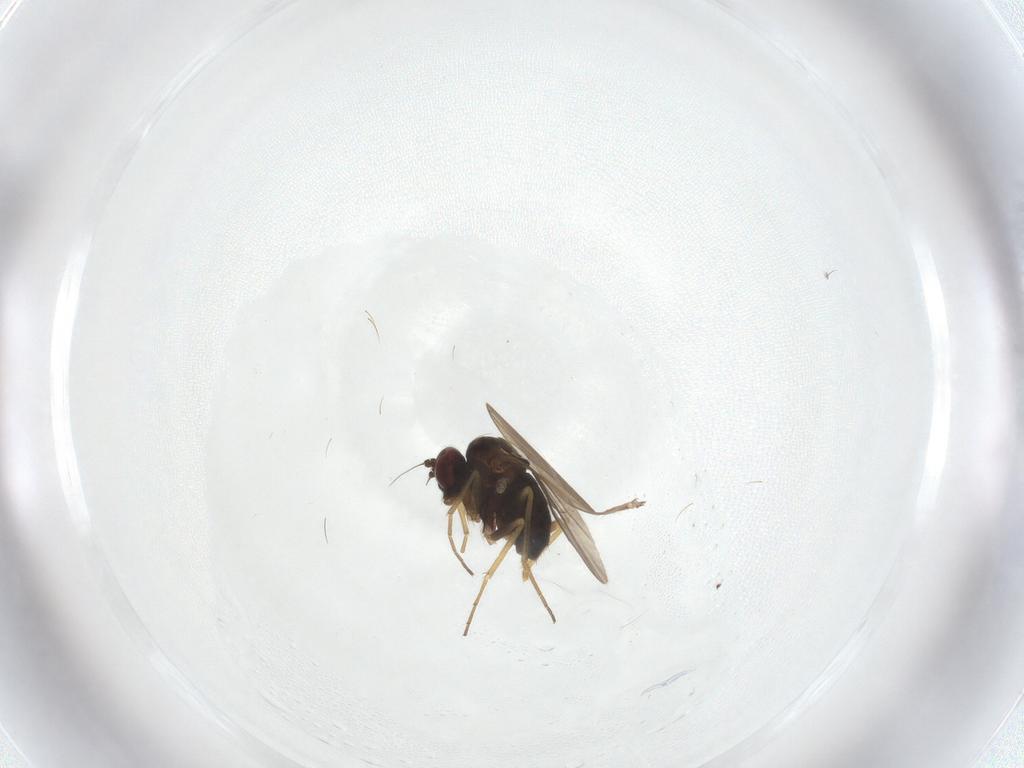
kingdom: Animalia
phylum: Arthropoda
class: Insecta
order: Diptera
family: Dolichopodidae
